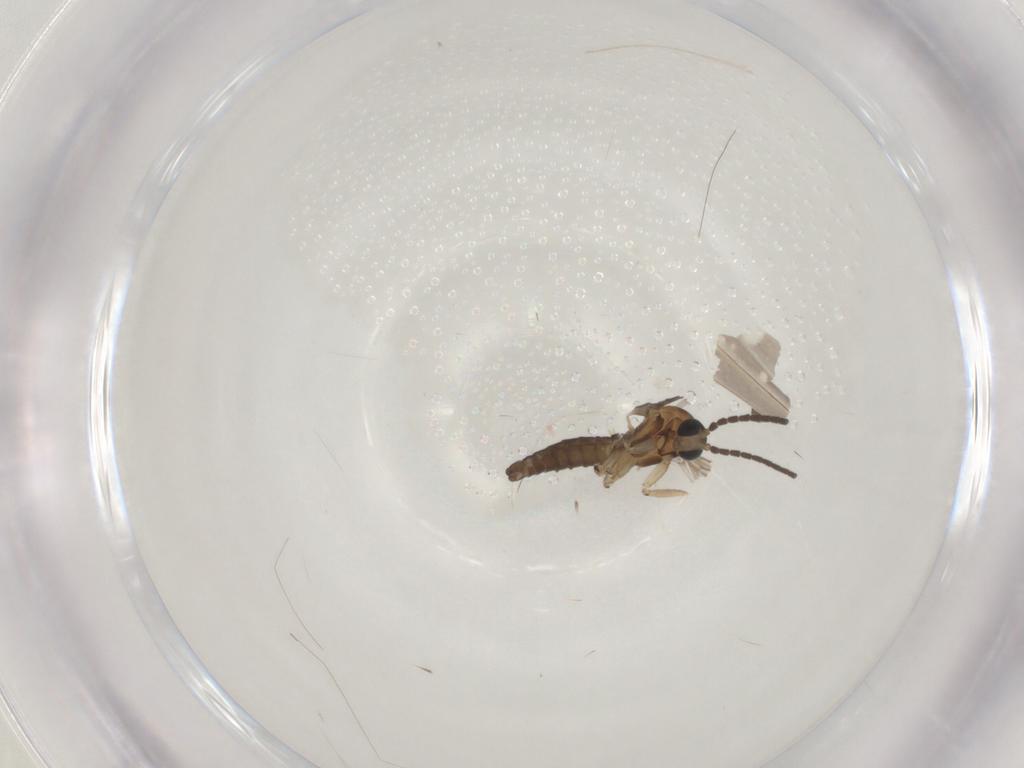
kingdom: Animalia
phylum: Arthropoda
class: Insecta
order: Diptera
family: Sciaridae
